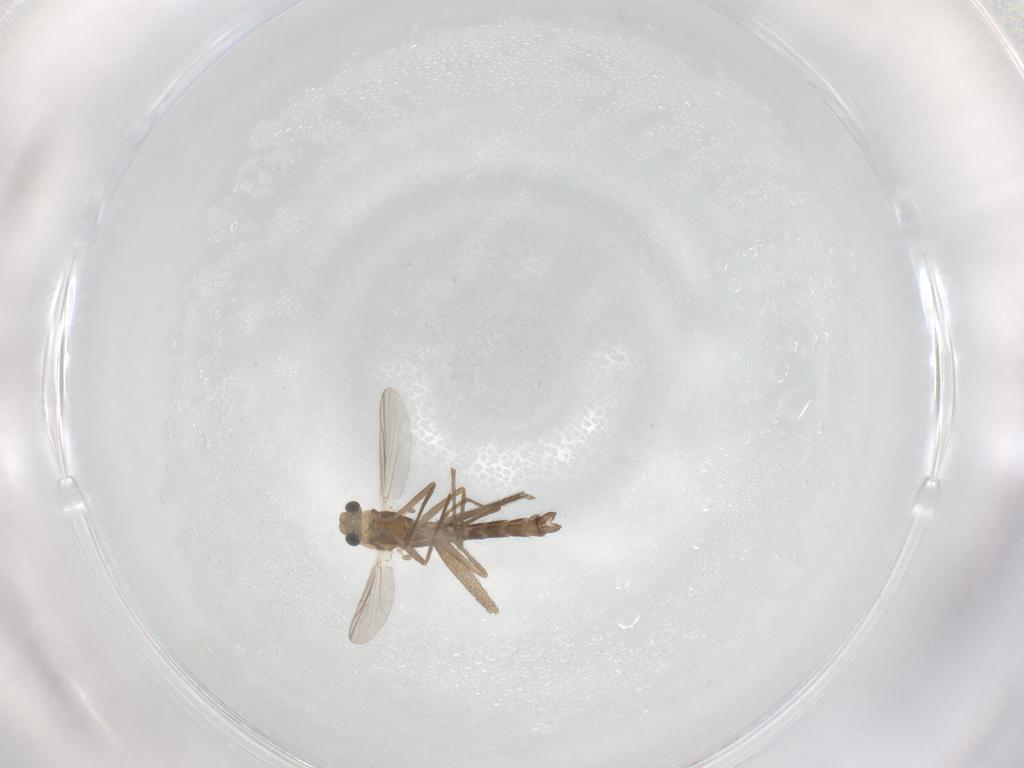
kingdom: Animalia
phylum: Arthropoda
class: Insecta
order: Diptera
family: Chironomidae
